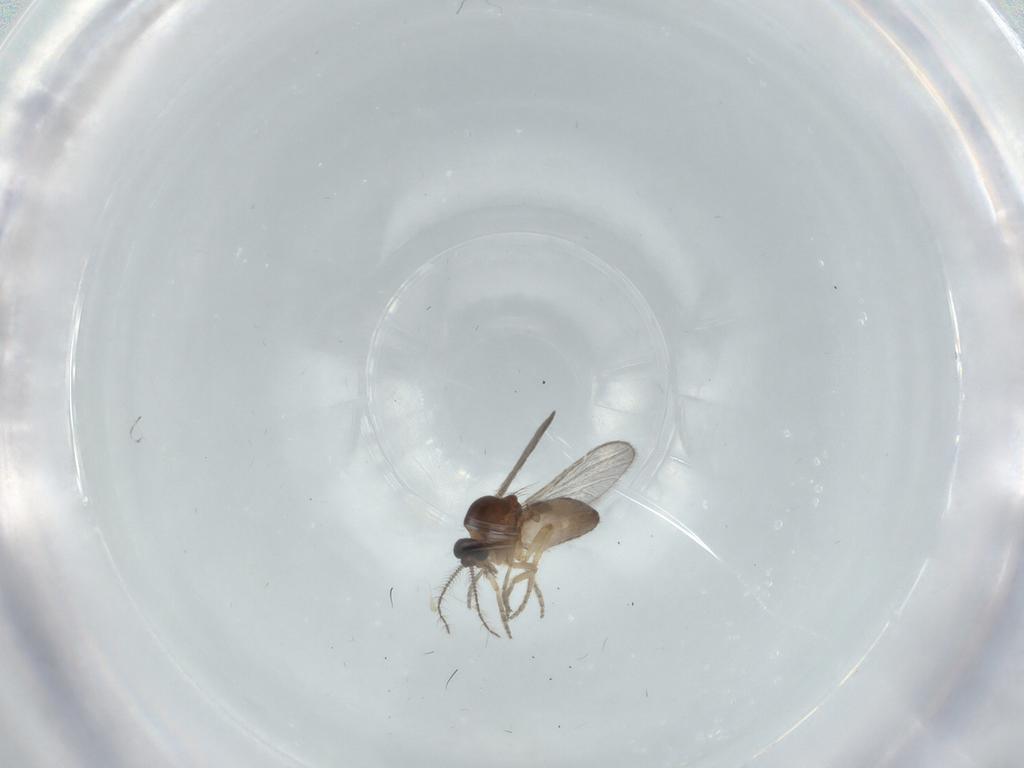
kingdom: Animalia
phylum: Arthropoda
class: Insecta
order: Diptera
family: Ceratopogonidae
